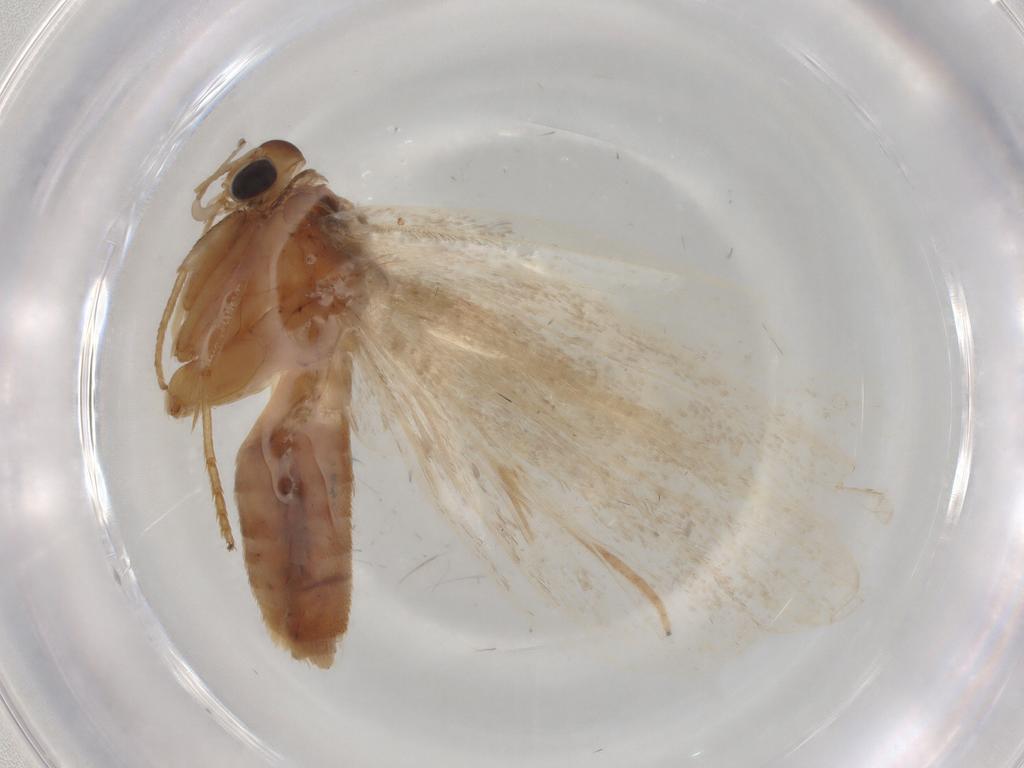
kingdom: Animalia
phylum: Arthropoda
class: Insecta
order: Lepidoptera
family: Lecithoceridae
